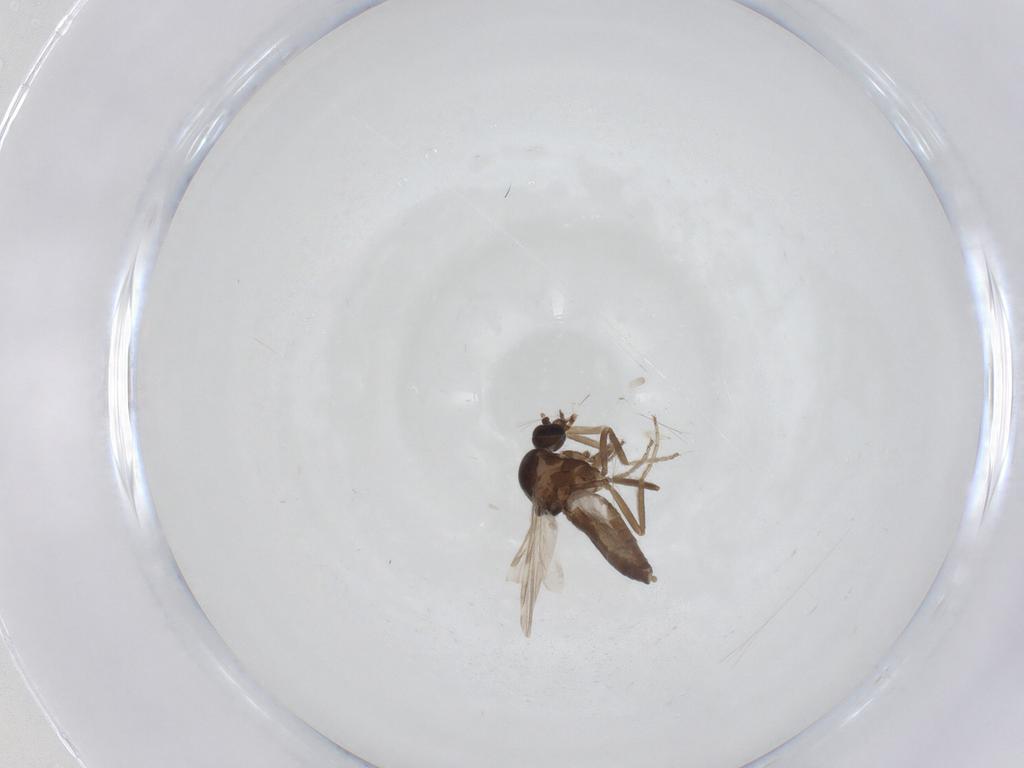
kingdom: Animalia
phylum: Arthropoda
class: Insecta
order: Diptera
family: Ceratopogonidae
